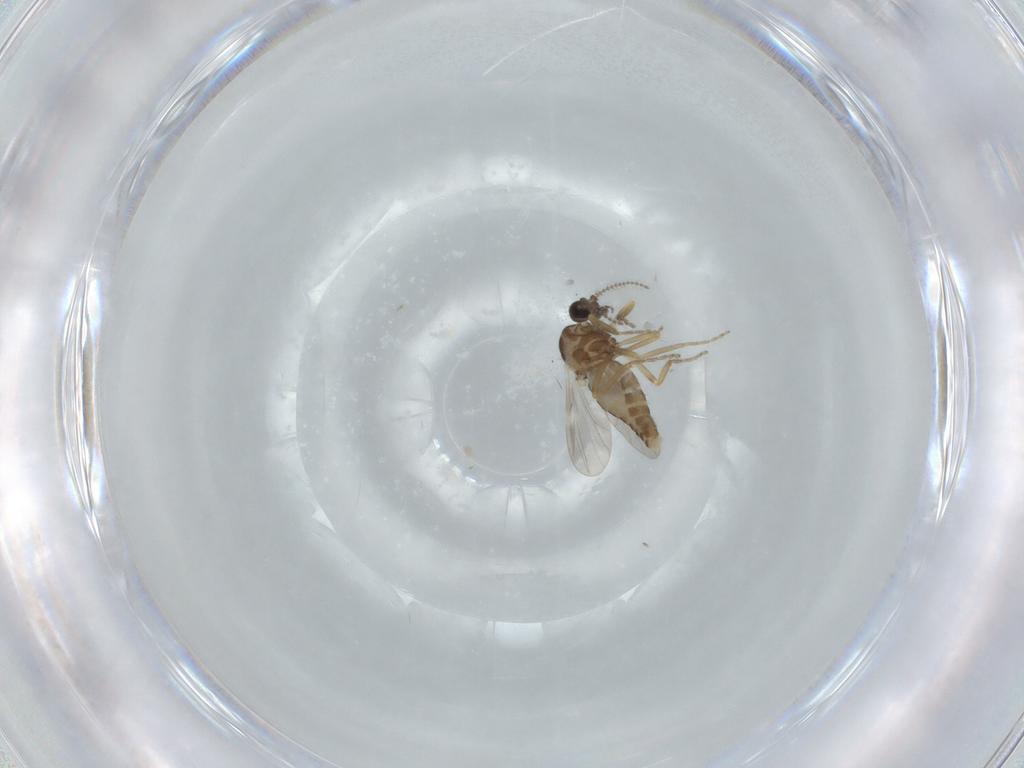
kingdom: Animalia
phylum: Arthropoda
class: Insecta
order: Diptera
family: Ceratopogonidae
